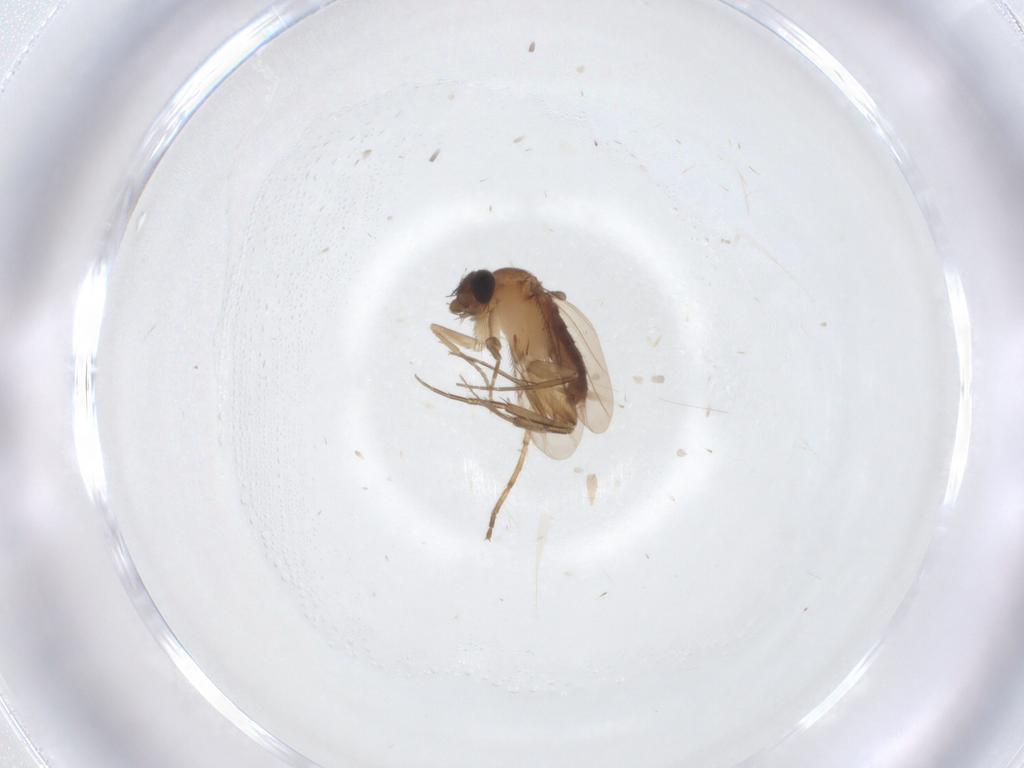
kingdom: Animalia
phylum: Arthropoda
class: Insecta
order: Diptera
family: Phoridae
